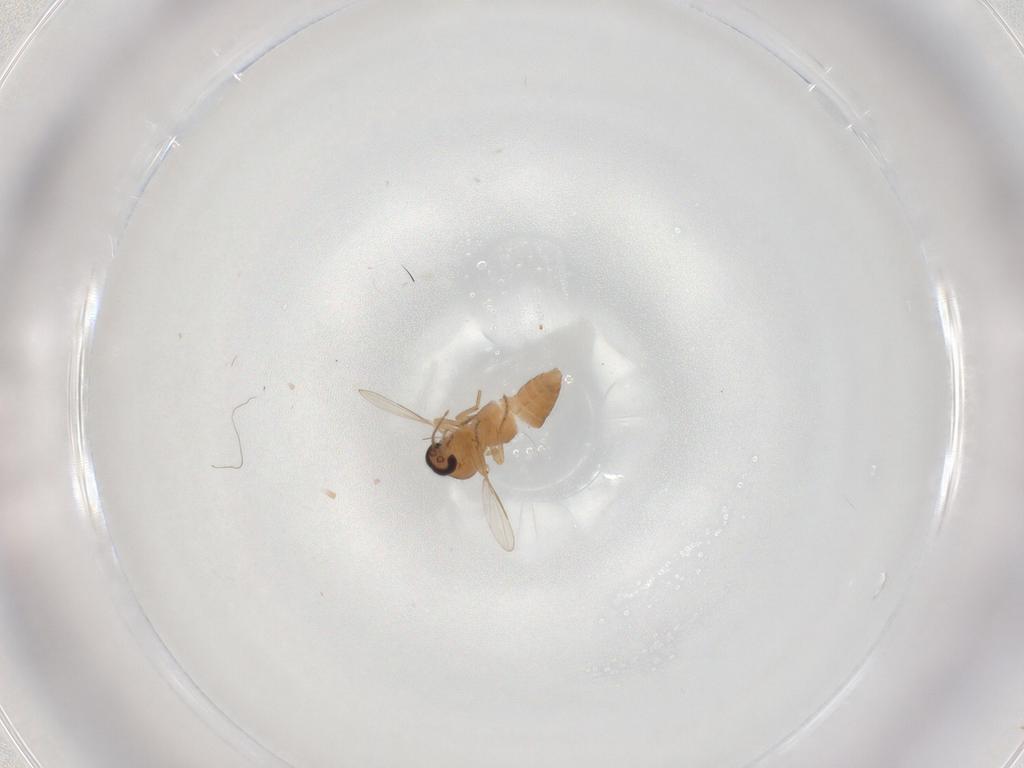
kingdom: Animalia
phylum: Arthropoda
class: Insecta
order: Diptera
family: Ceratopogonidae
